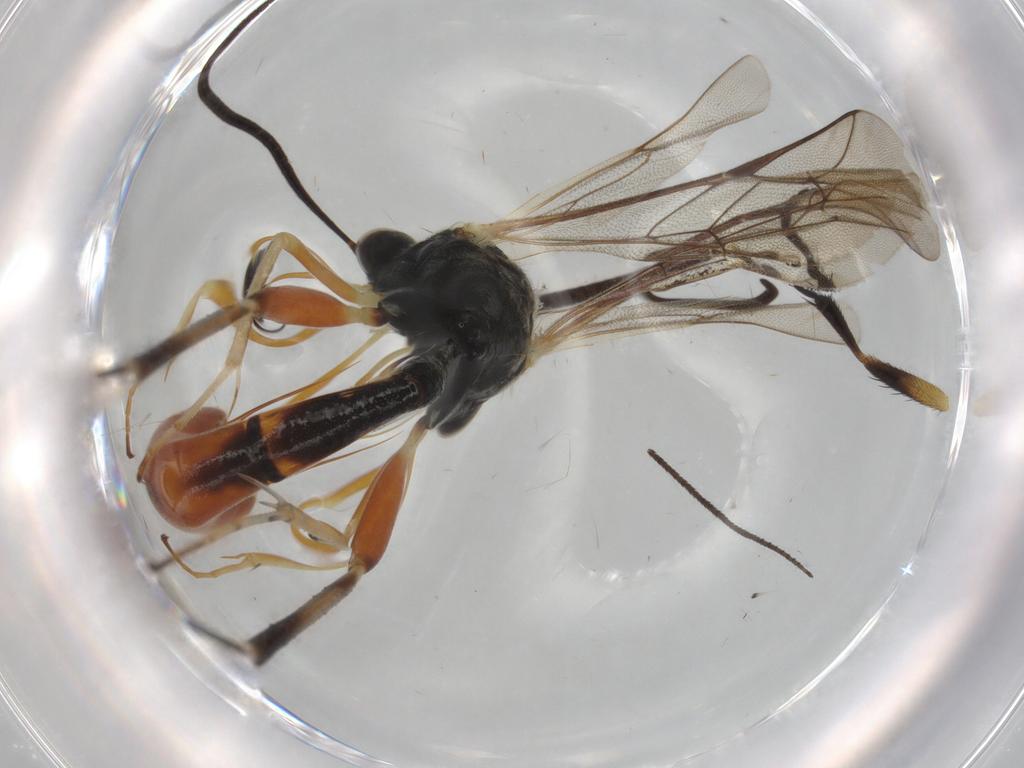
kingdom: Animalia
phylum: Arthropoda
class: Insecta
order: Hymenoptera
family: Ichneumonidae
